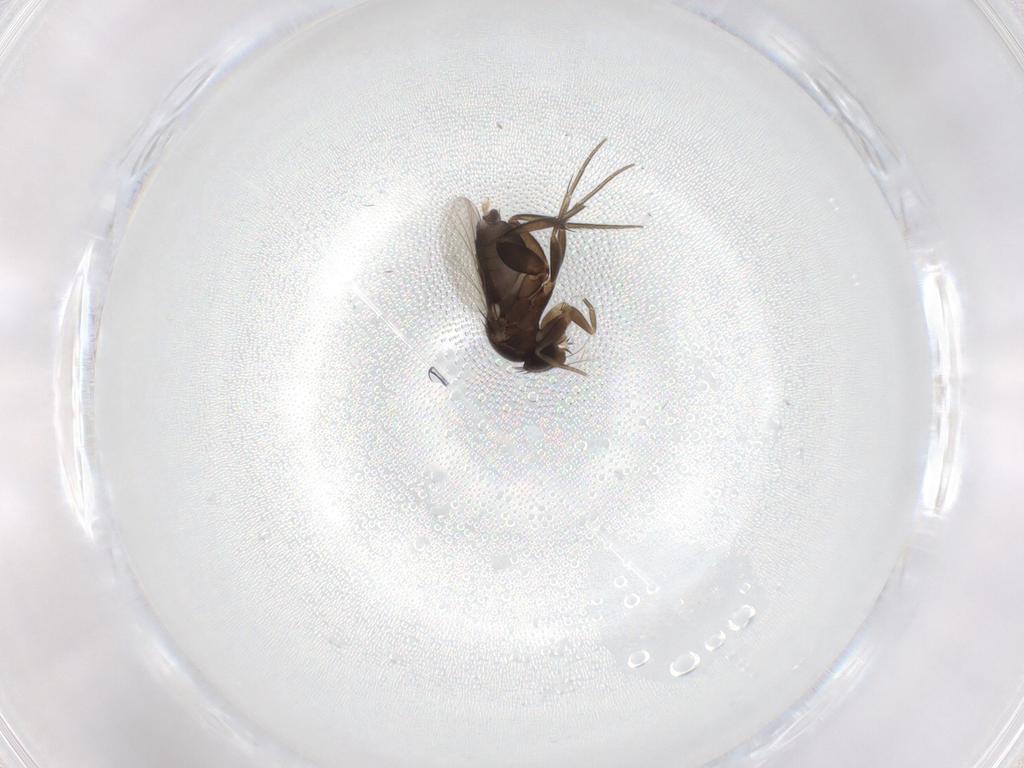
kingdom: Animalia
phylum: Arthropoda
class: Insecta
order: Diptera
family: Phoridae
